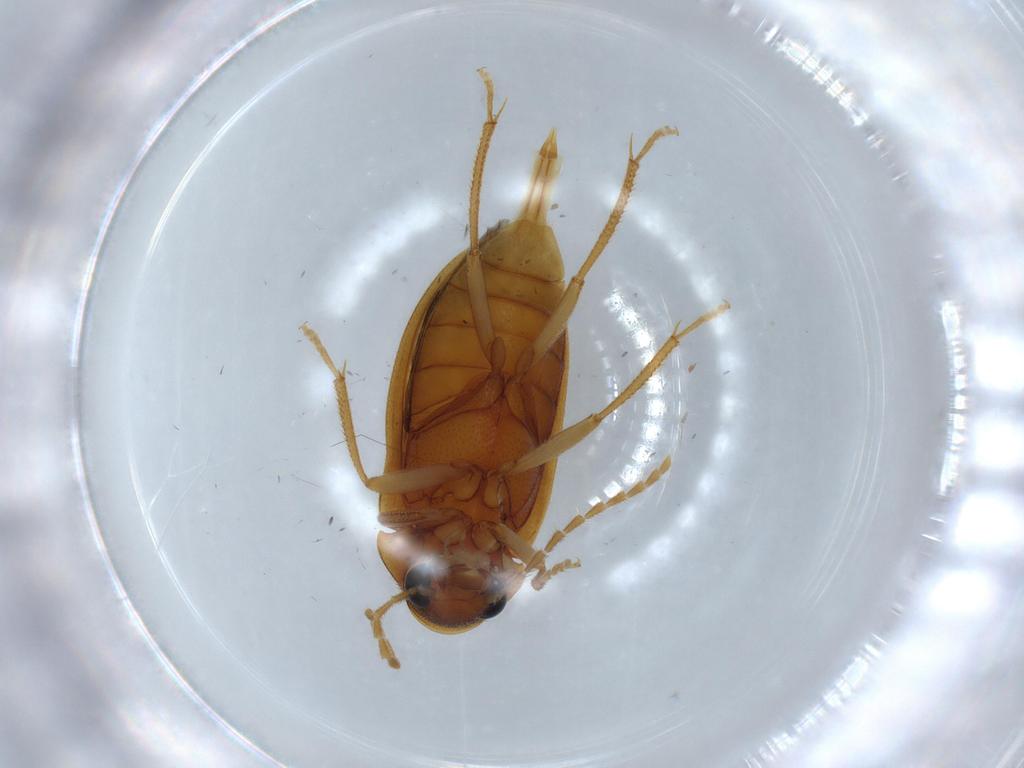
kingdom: Animalia
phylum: Arthropoda
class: Insecta
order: Coleoptera
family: Ptilodactylidae
